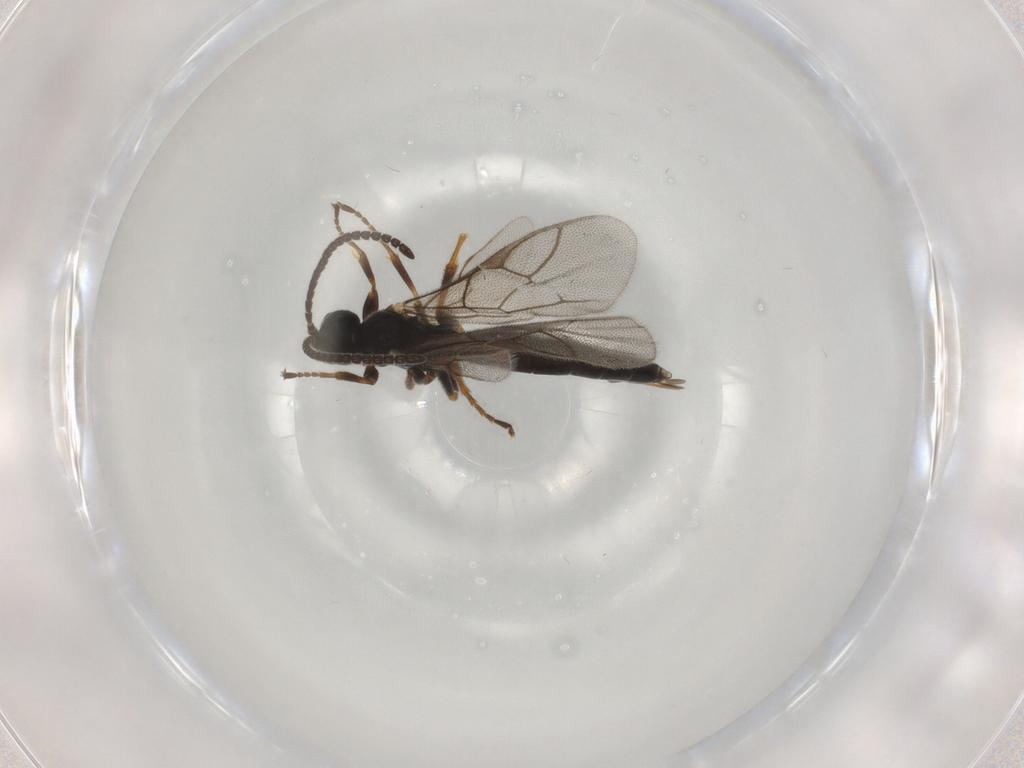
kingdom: Animalia
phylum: Arthropoda
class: Insecta
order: Hymenoptera
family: Ichneumonidae
